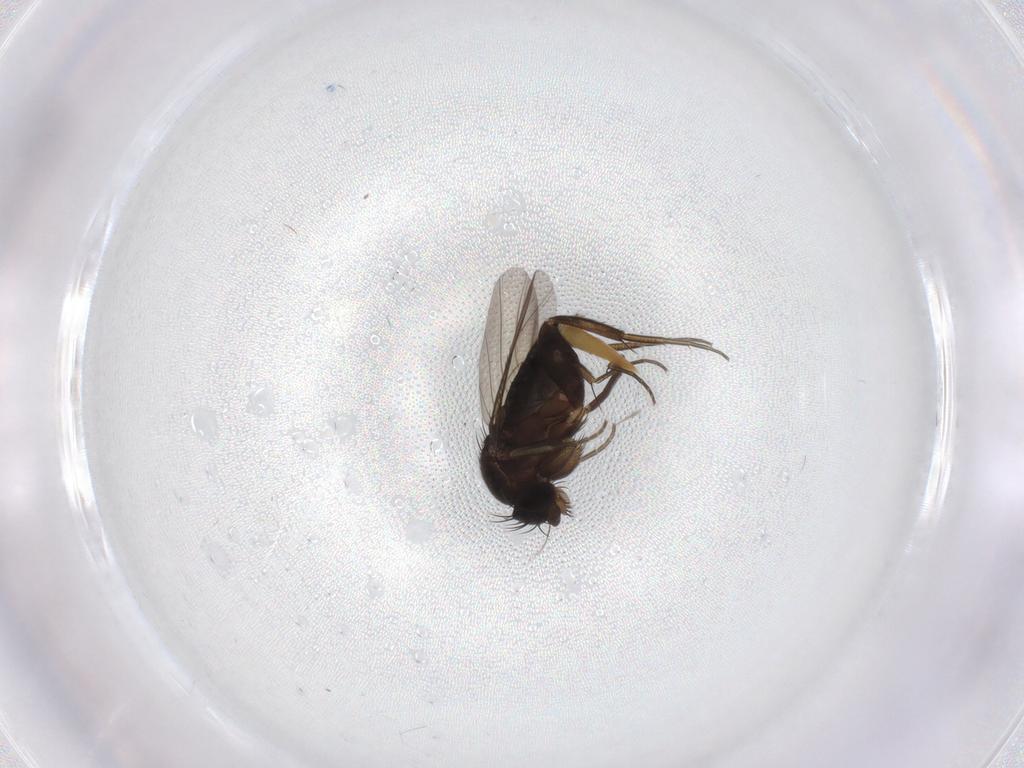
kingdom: Animalia
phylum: Arthropoda
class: Insecta
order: Diptera
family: Phoridae
